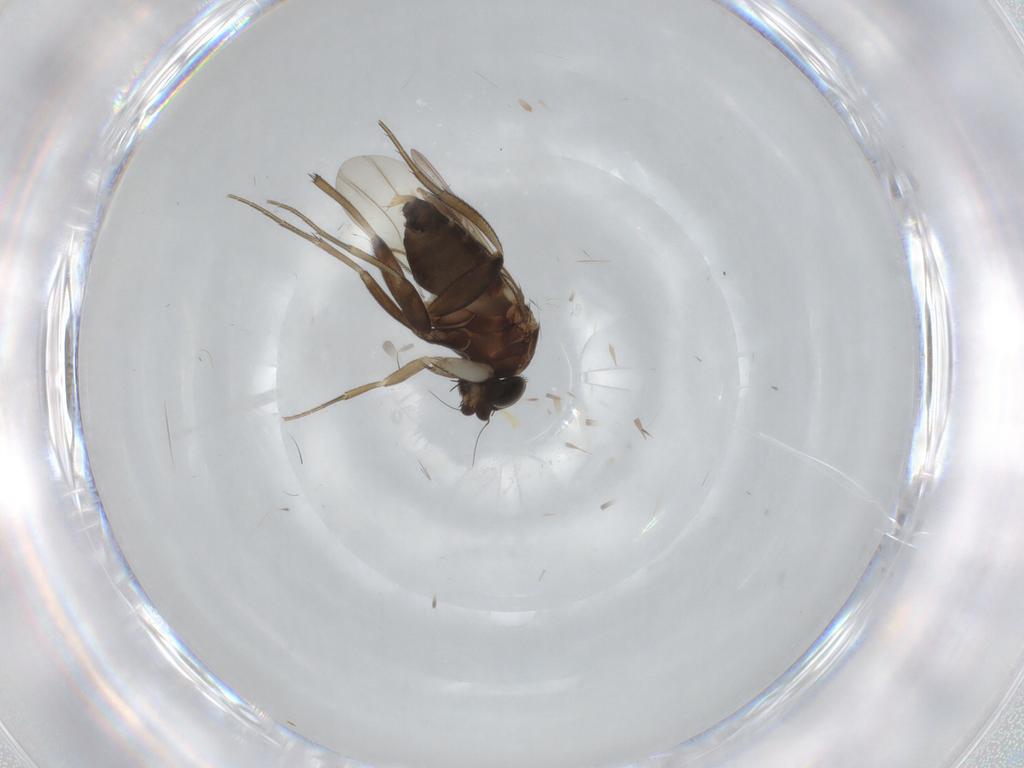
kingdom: Animalia
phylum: Arthropoda
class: Insecta
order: Diptera
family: Phoridae
